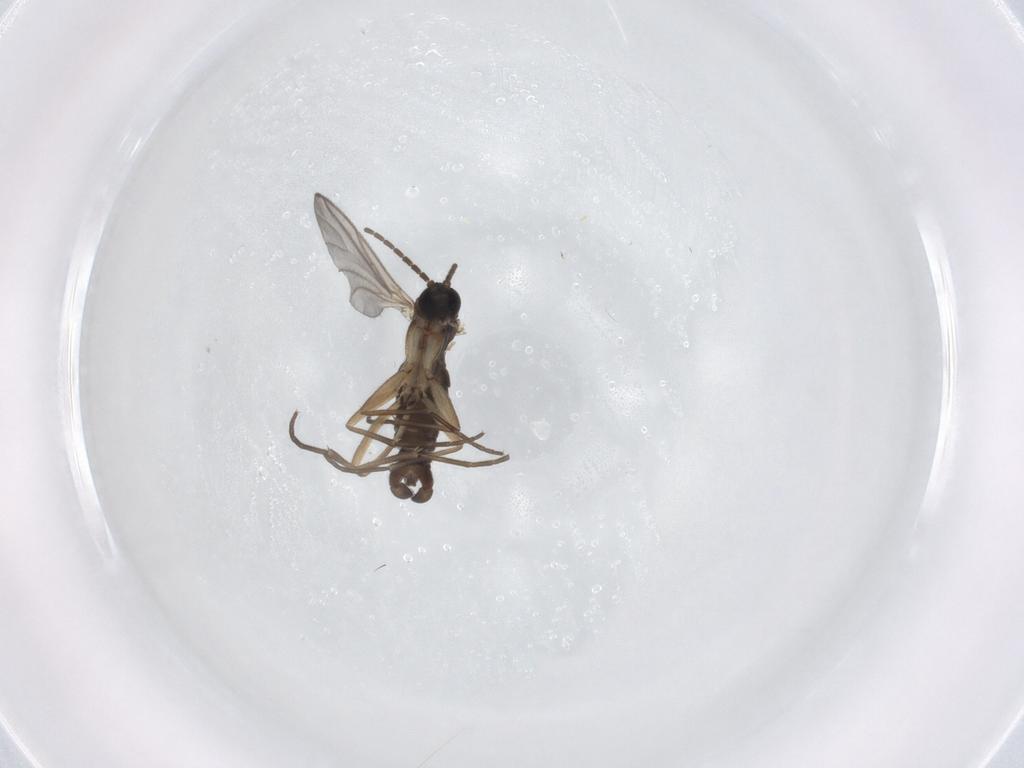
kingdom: Animalia
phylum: Arthropoda
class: Insecta
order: Diptera
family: Sciaridae
